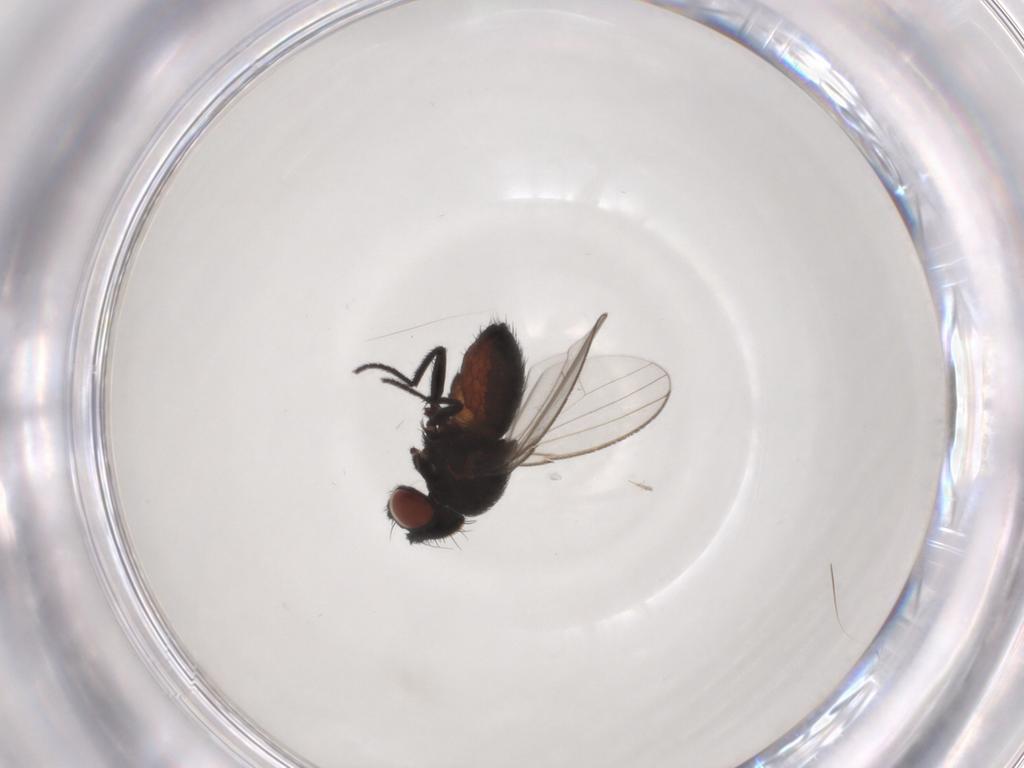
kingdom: Animalia
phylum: Arthropoda
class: Insecta
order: Diptera
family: Milichiidae
